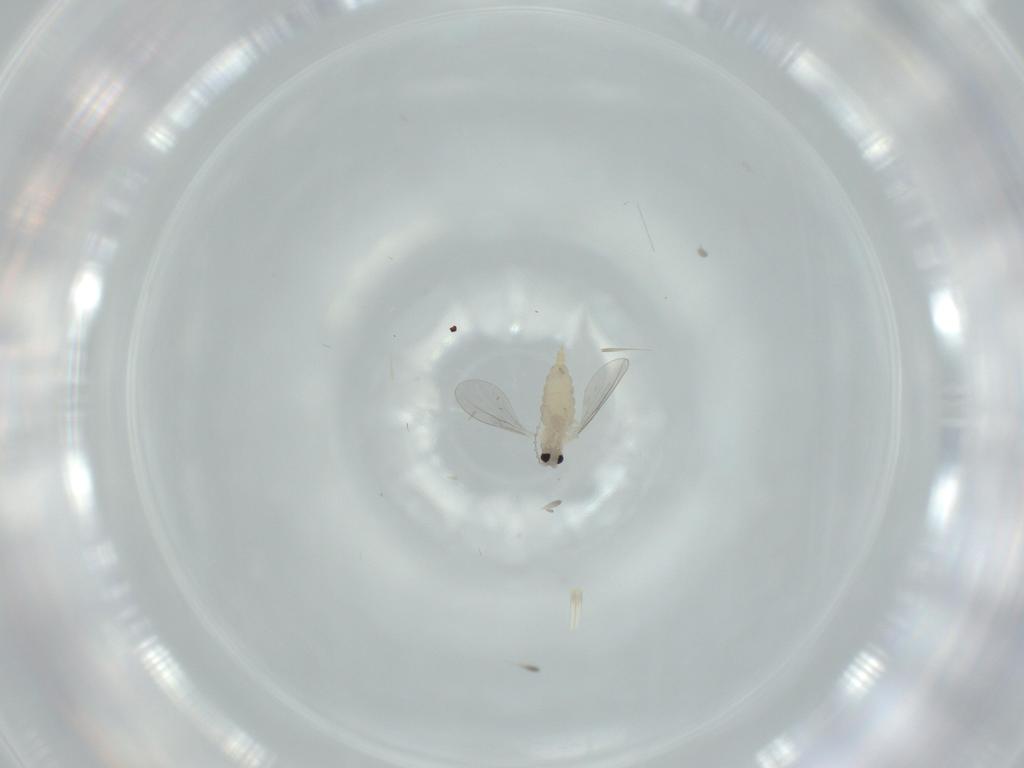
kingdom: Animalia
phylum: Arthropoda
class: Insecta
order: Diptera
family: Cecidomyiidae
